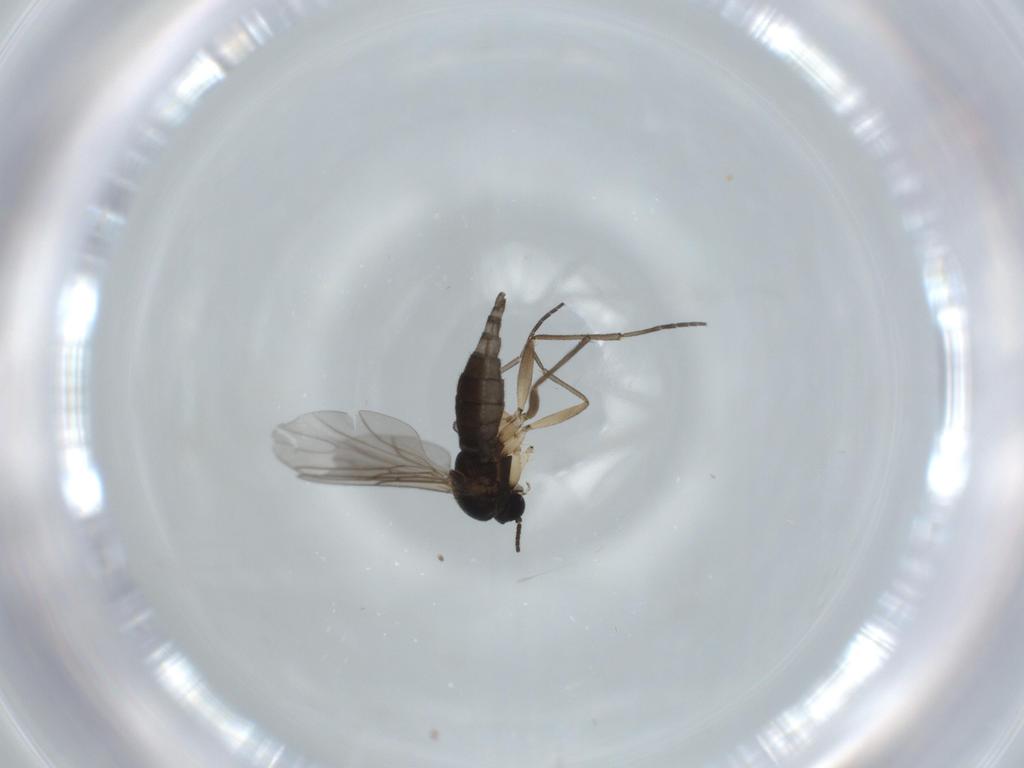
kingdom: Animalia
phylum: Arthropoda
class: Insecta
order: Diptera
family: Sciaridae
